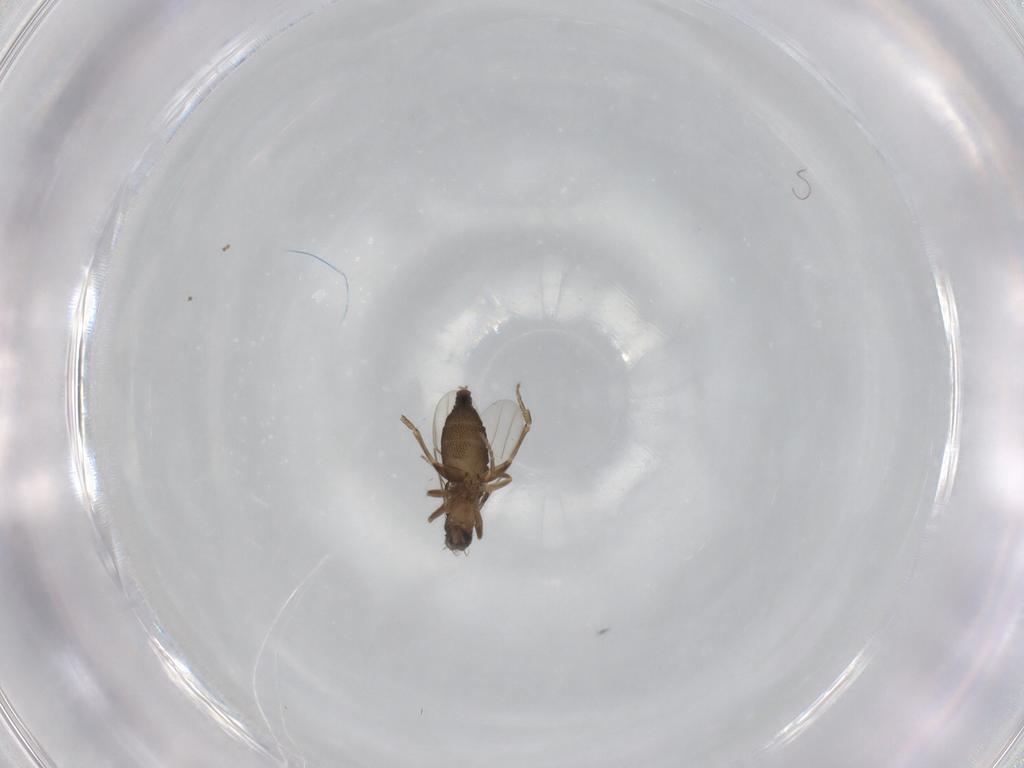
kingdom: Animalia
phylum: Arthropoda
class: Insecta
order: Diptera
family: Phoridae
